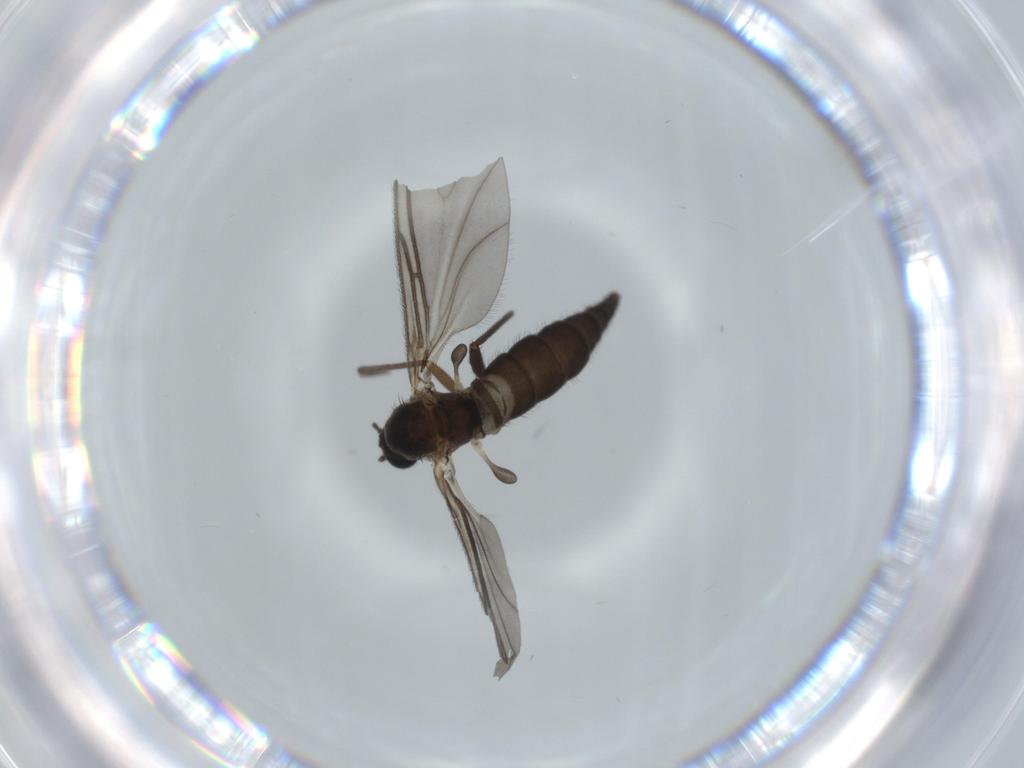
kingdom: Animalia
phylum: Arthropoda
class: Insecta
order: Diptera
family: Sciaridae
